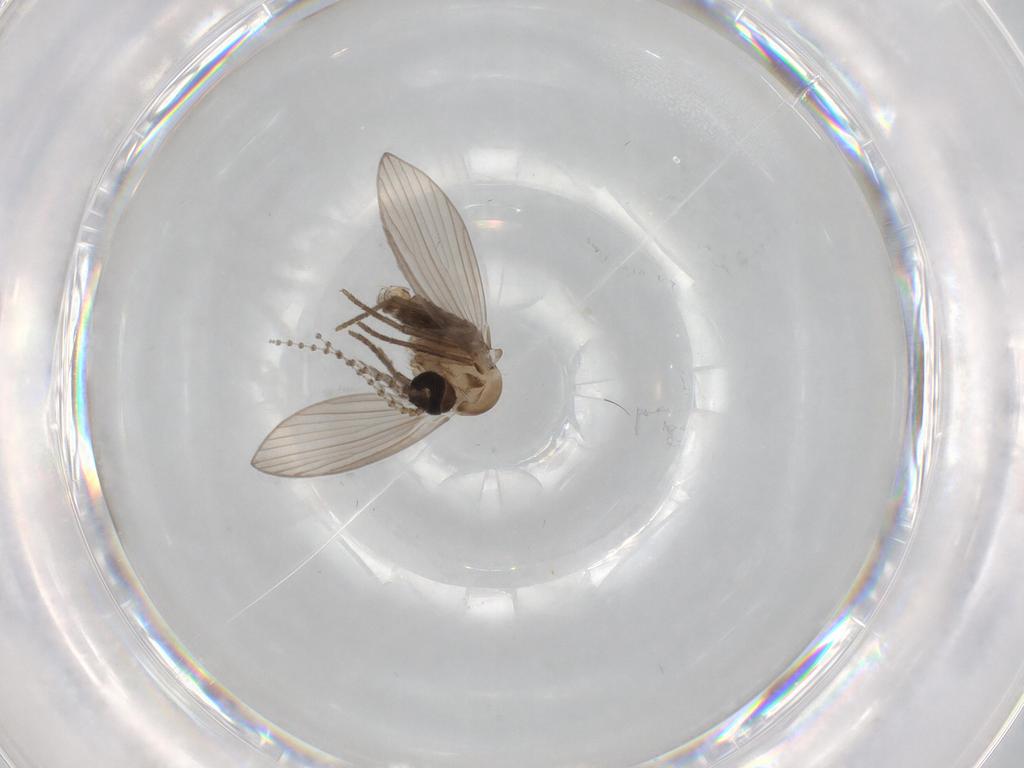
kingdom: Animalia
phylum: Arthropoda
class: Insecta
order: Diptera
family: Psychodidae
